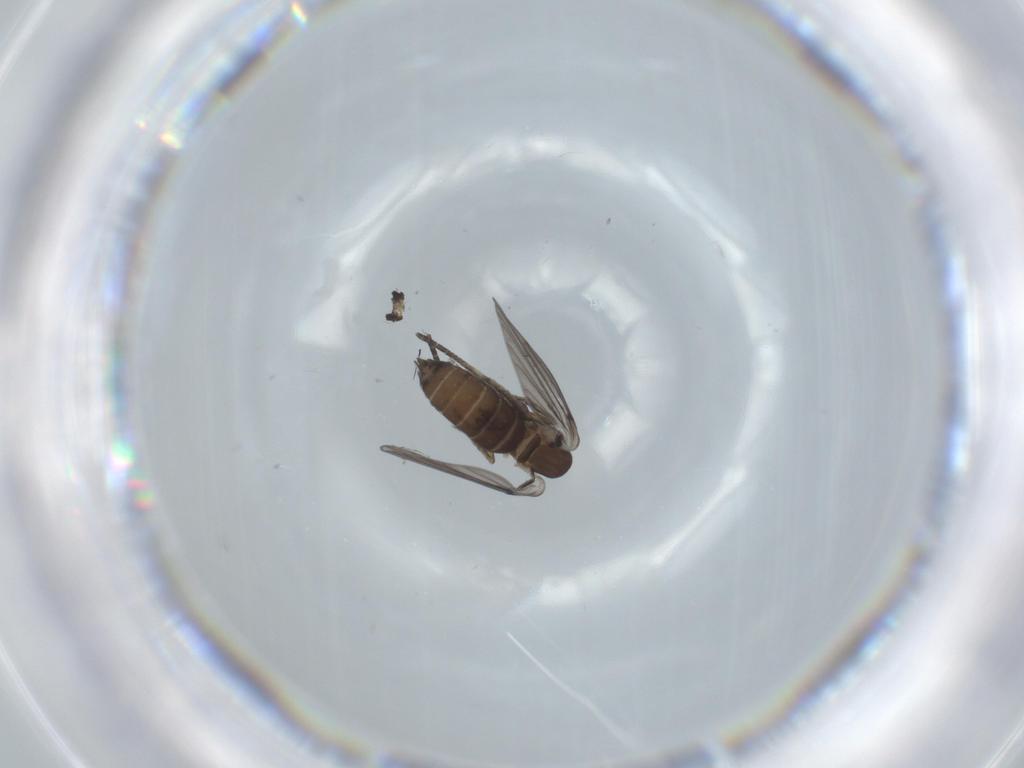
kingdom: Animalia
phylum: Arthropoda
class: Insecta
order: Diptera
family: Psychodidae
